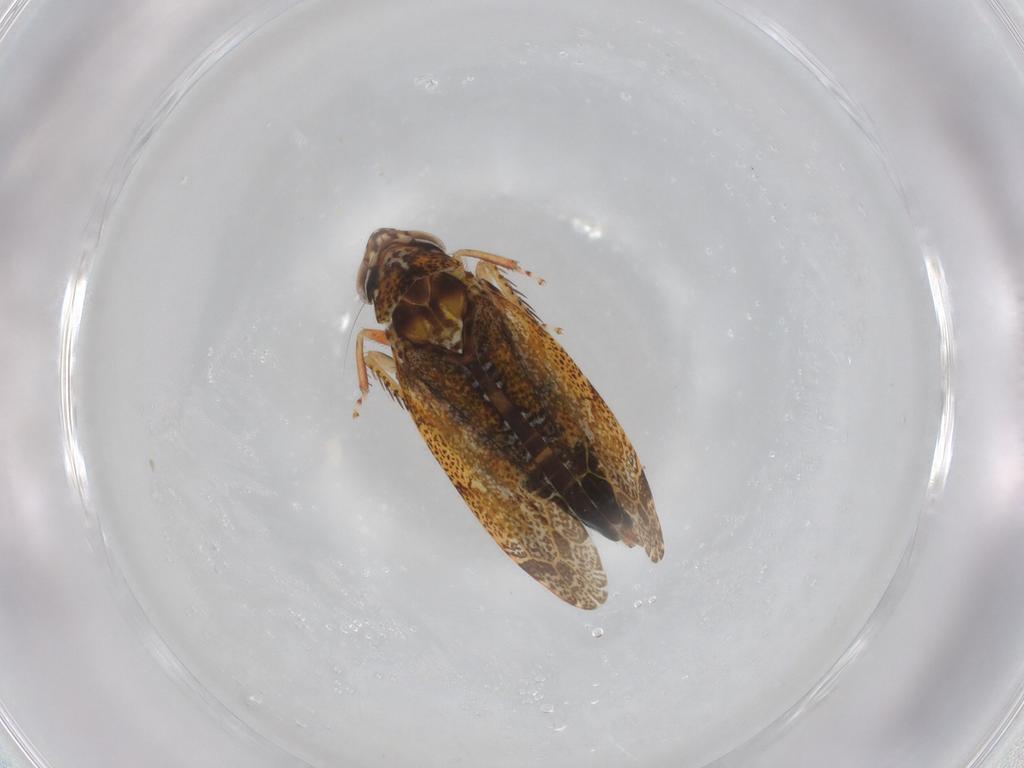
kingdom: Animalia
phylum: Arthropoda
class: Insecta
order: Hemiptera
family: Cicadellidae
